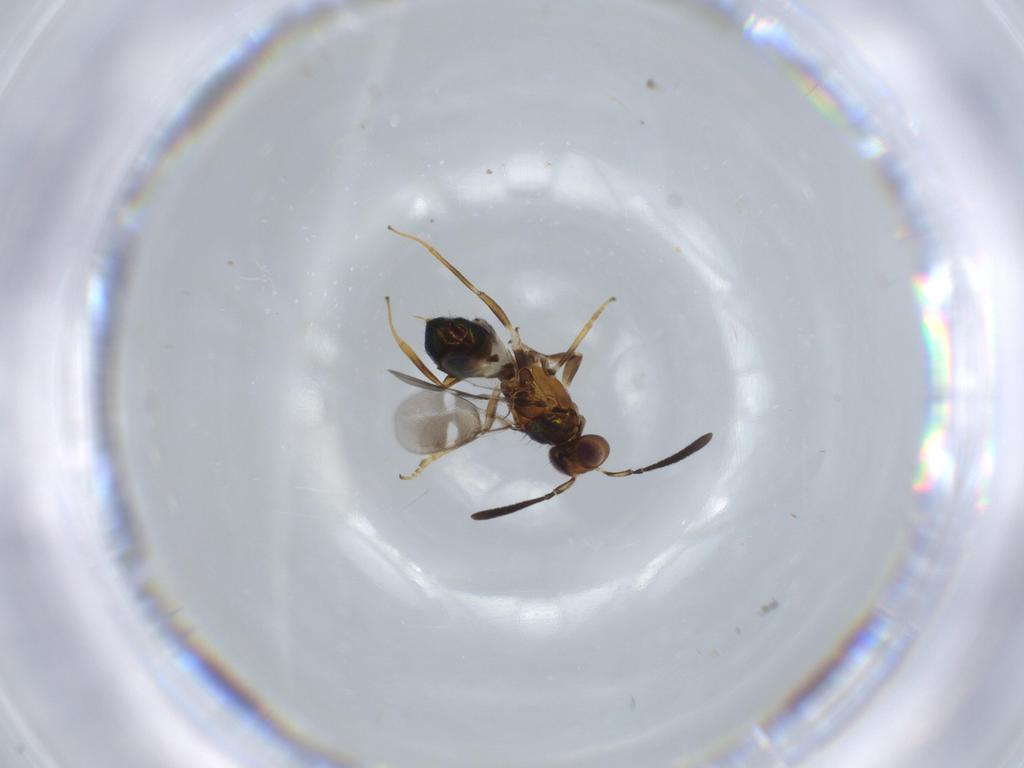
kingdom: Animalia
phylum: Arthropoda
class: Insecta
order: Hymenoptera
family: Eupelmidae
